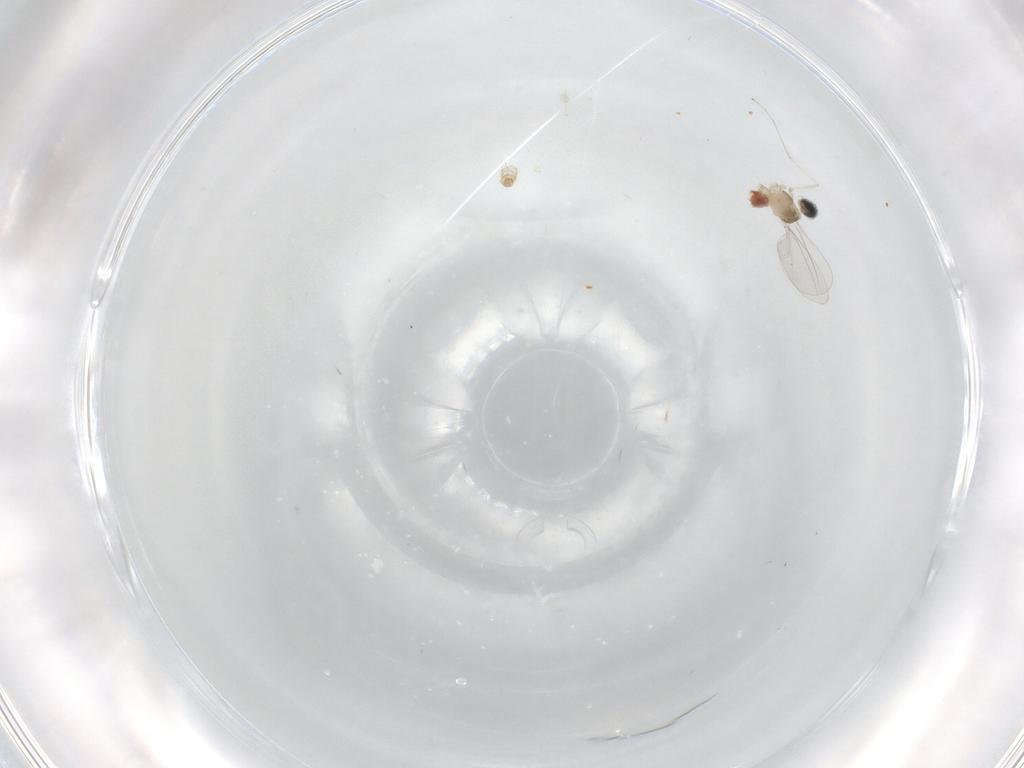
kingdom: Animalia
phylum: Arthropoda
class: Insecta
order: Diptera
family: Phoridae
